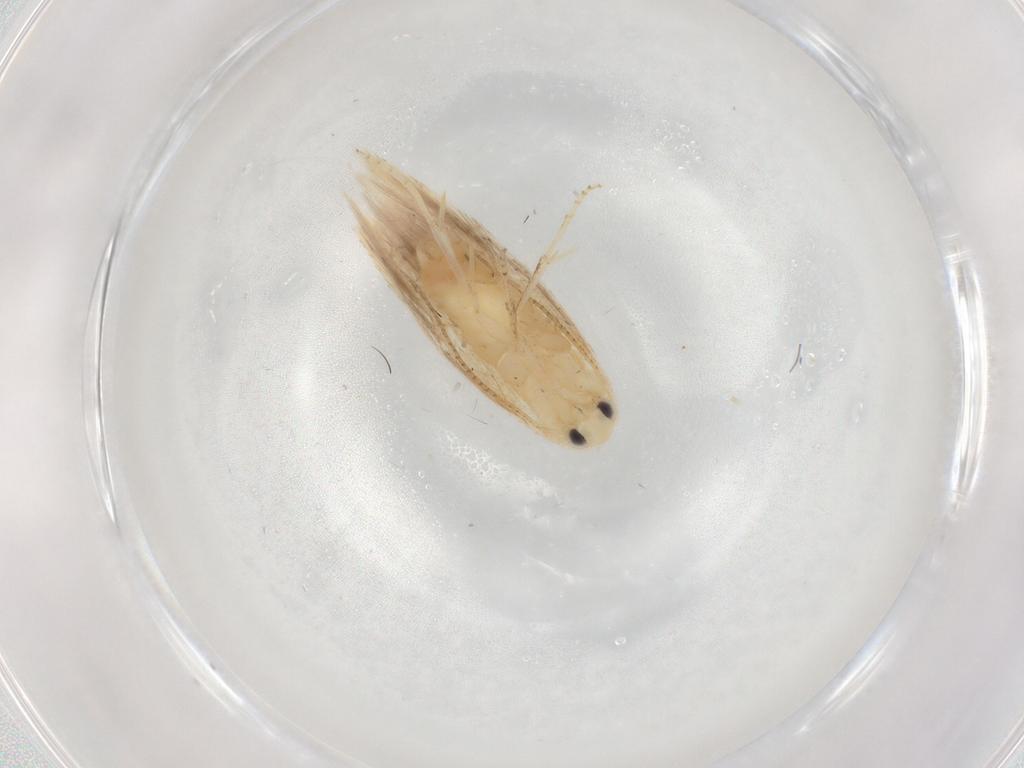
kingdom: Animalia
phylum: Arthropoda
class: Insecta
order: Lepidoptera
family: Bucculatricidae
